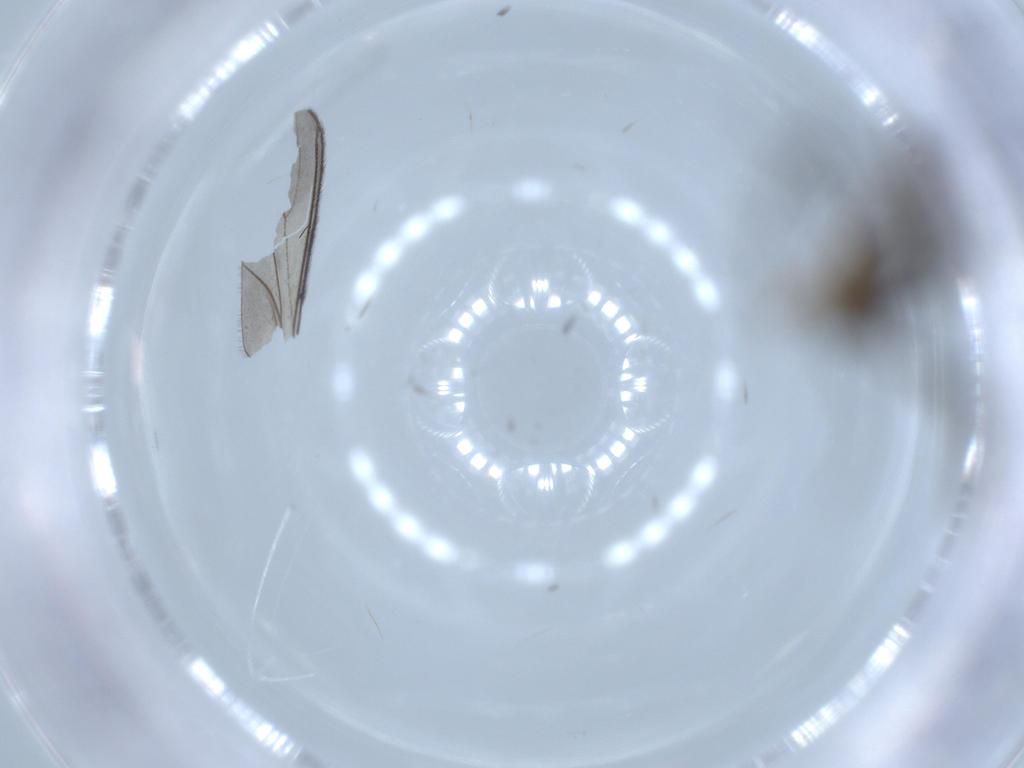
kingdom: Animalia
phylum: Arthropoda
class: Insecta
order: Diptera
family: Sciaridae
